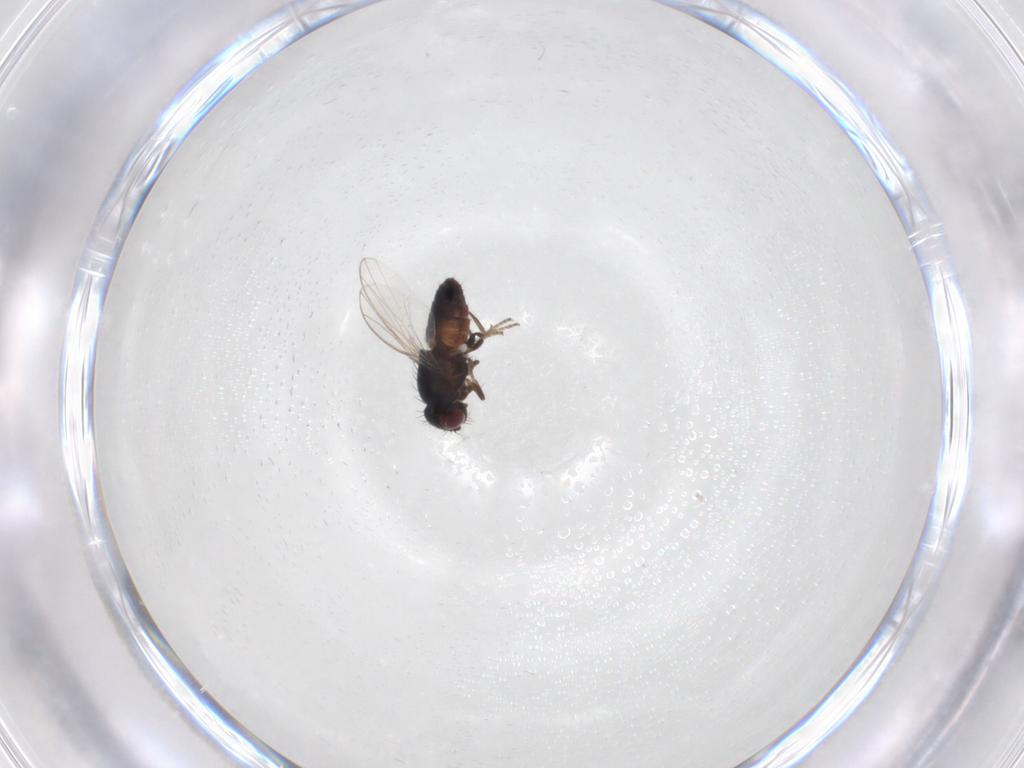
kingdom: Animalia
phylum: Arthropoda
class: Insecta
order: Diptera
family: Carnidae
